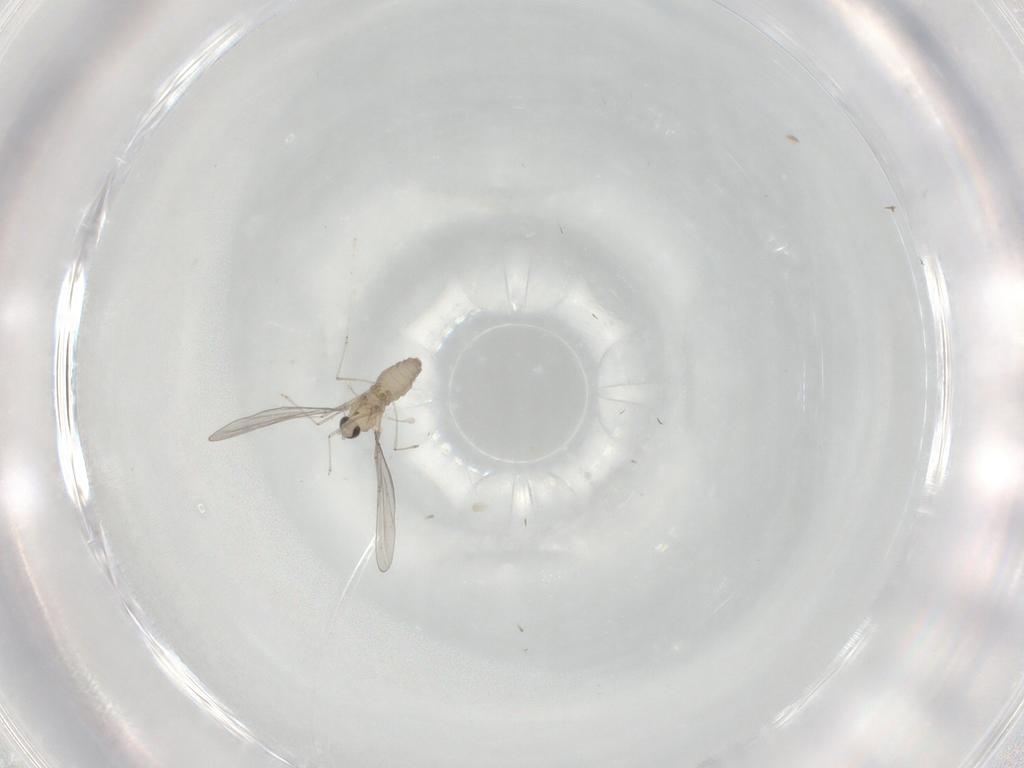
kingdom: Animalia
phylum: Arthropoda
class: Insecta
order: Diptera
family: Cecidomyiidae
